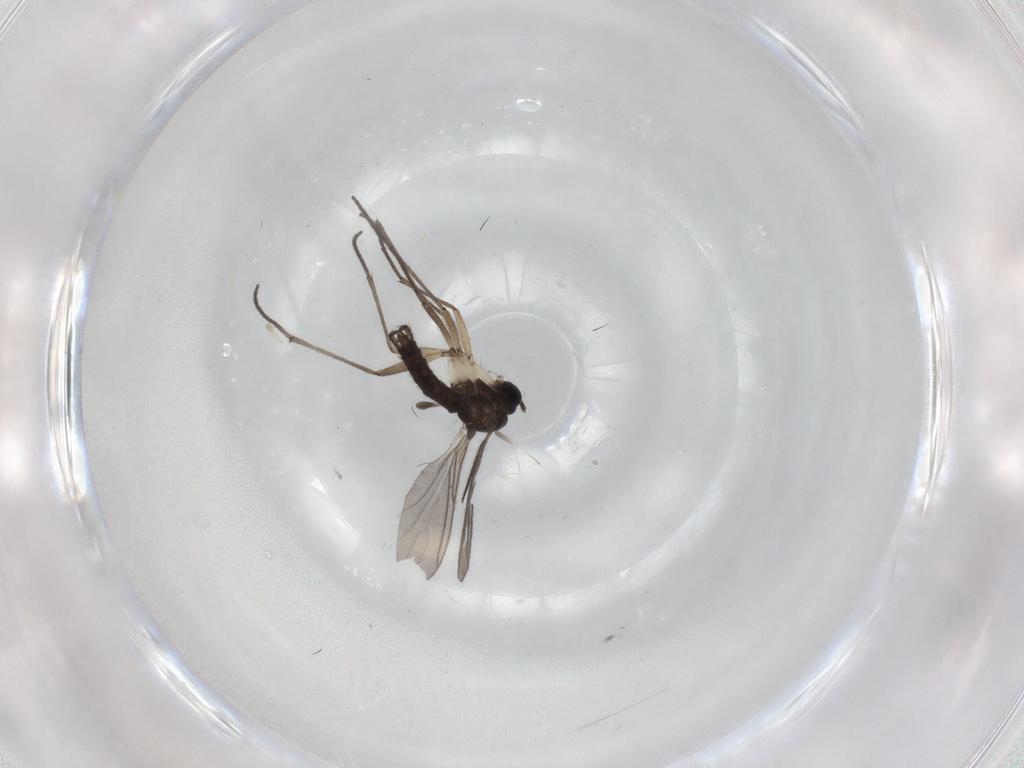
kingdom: Animalia
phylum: Arthropoda
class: Insecta
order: Diptera
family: Sciaridae
